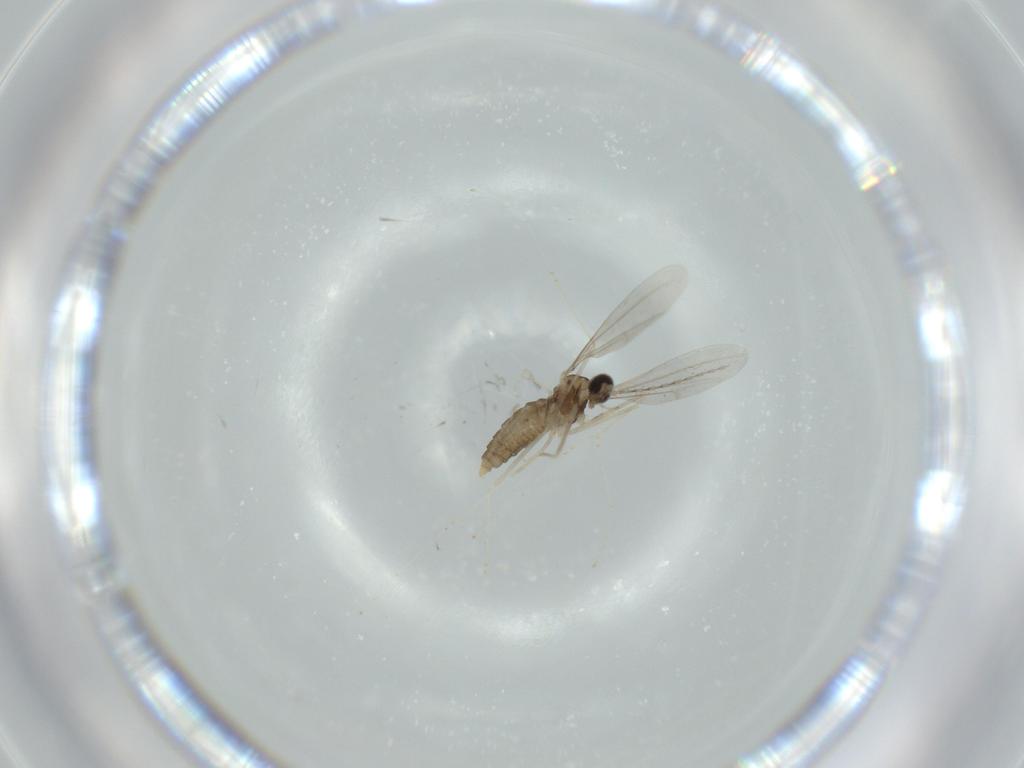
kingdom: Animalia
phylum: Arthropoda
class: Insecta
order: Diptera
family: Cecidomyiidae
